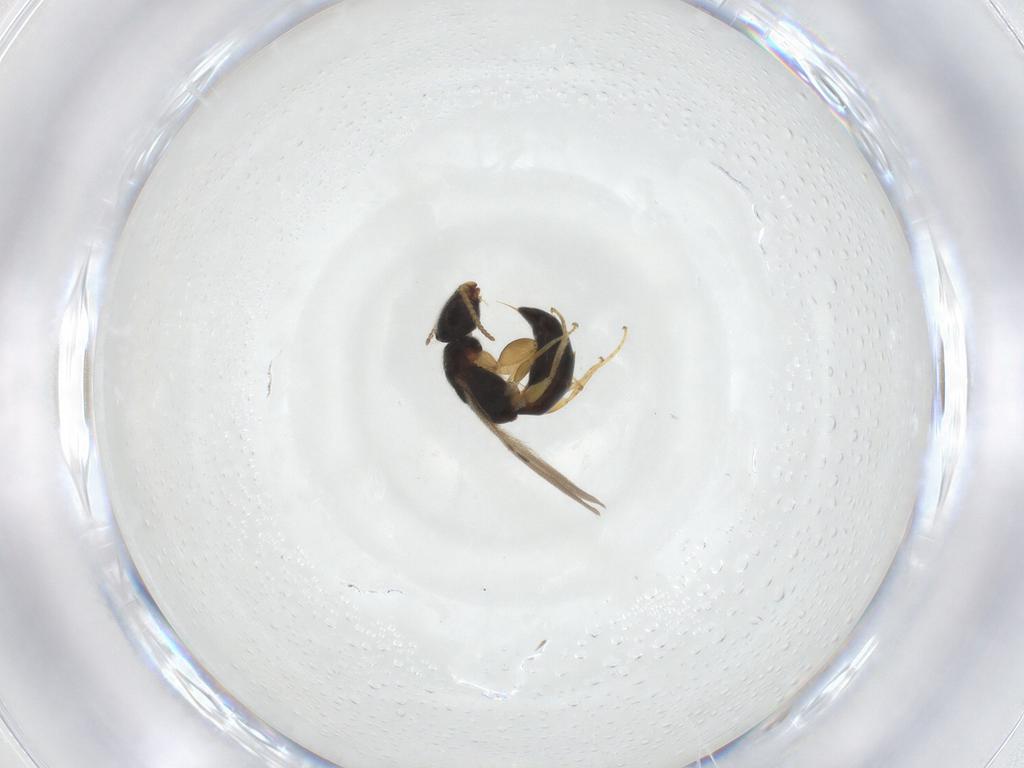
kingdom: Animalia
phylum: Arthropoda
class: Insecta
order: Hymenoptera
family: Bethylidae
